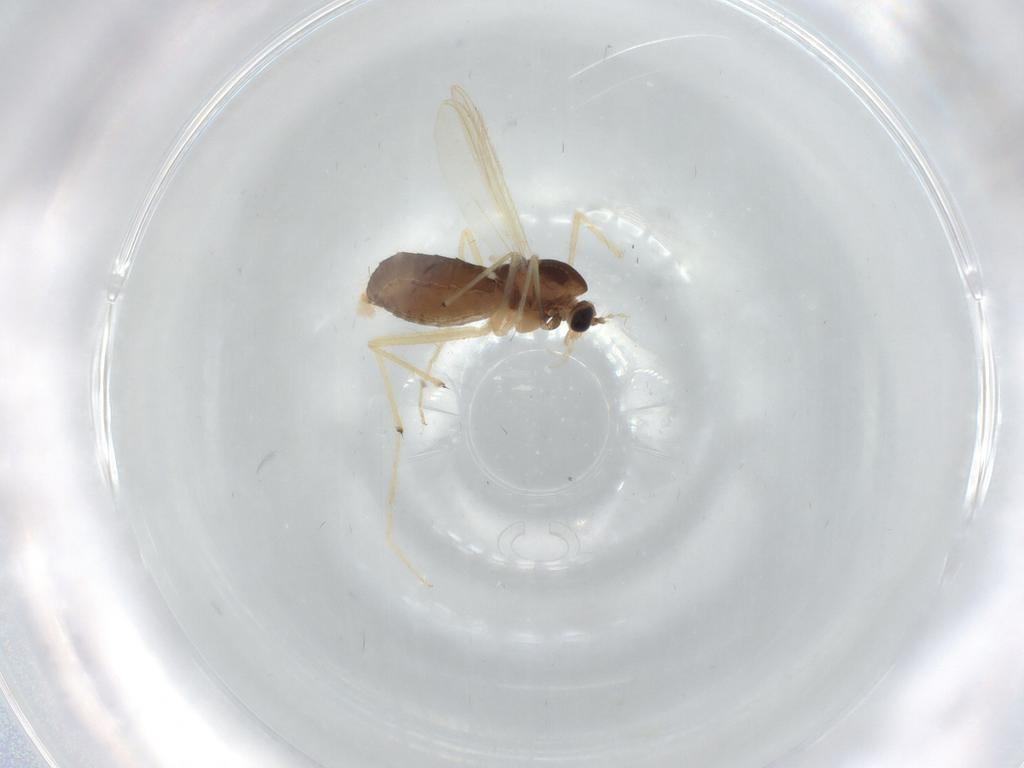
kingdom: Animalia
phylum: Arthropoda
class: Insecta
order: Diptera
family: Chironomidae
